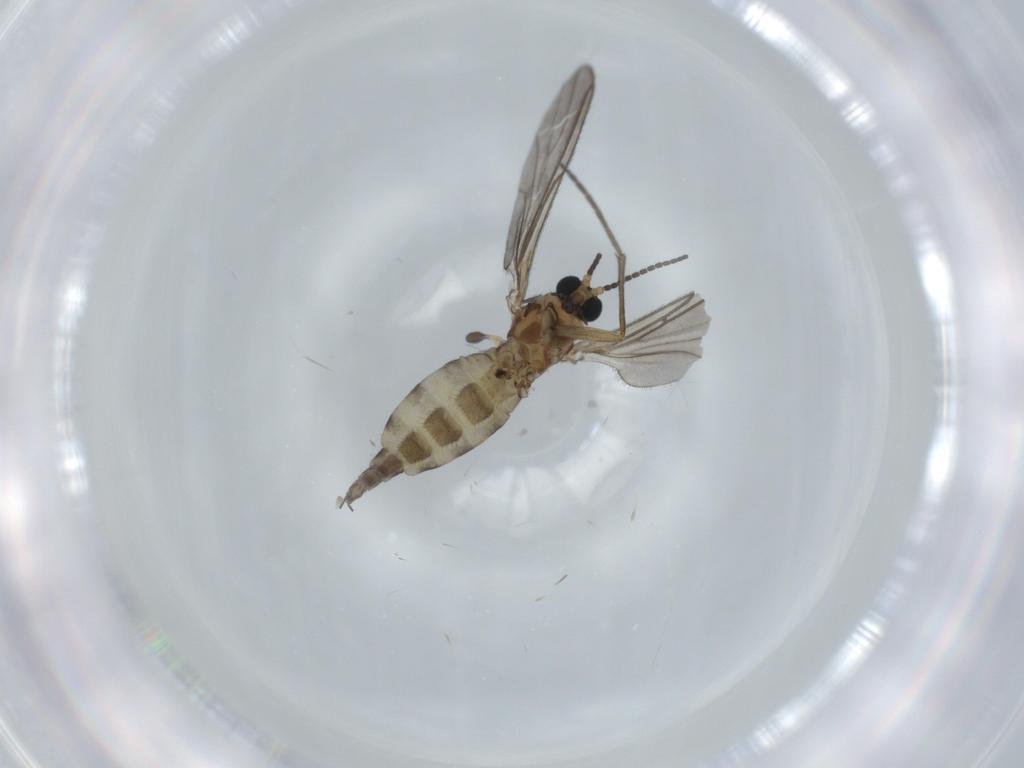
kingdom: Animalia
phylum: Arthropoda
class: Insecta
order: Diptera
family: Sciaridae
